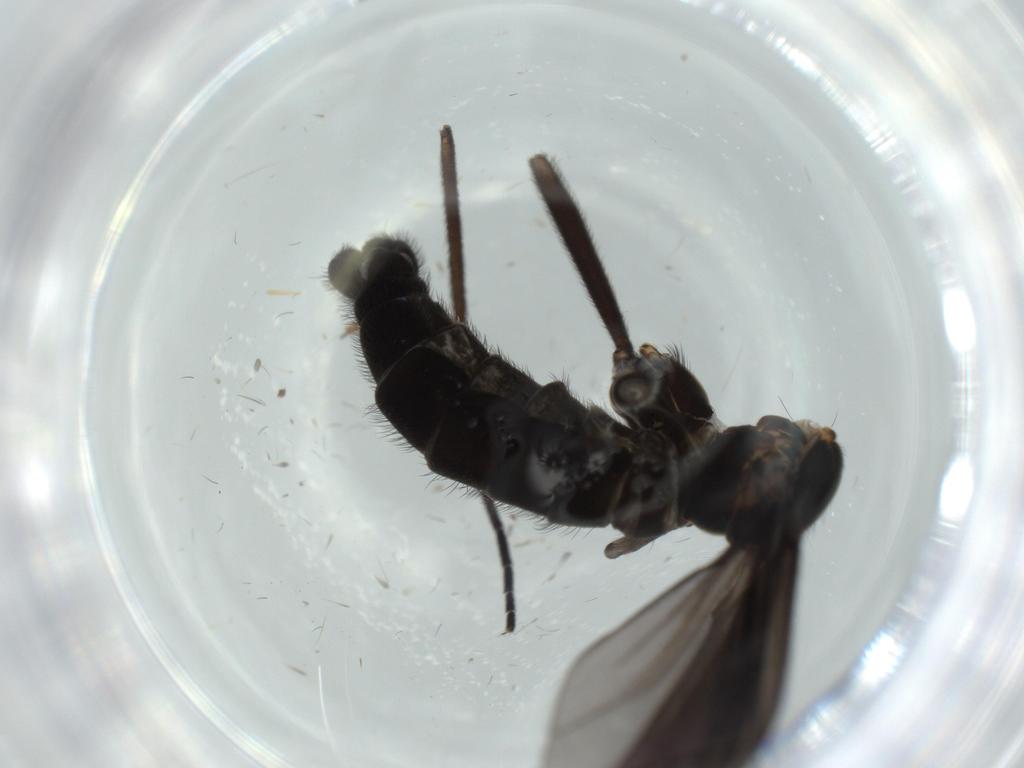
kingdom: Animalia
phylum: Arthropoda
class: Insecta
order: Diptera
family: Sciaridae
